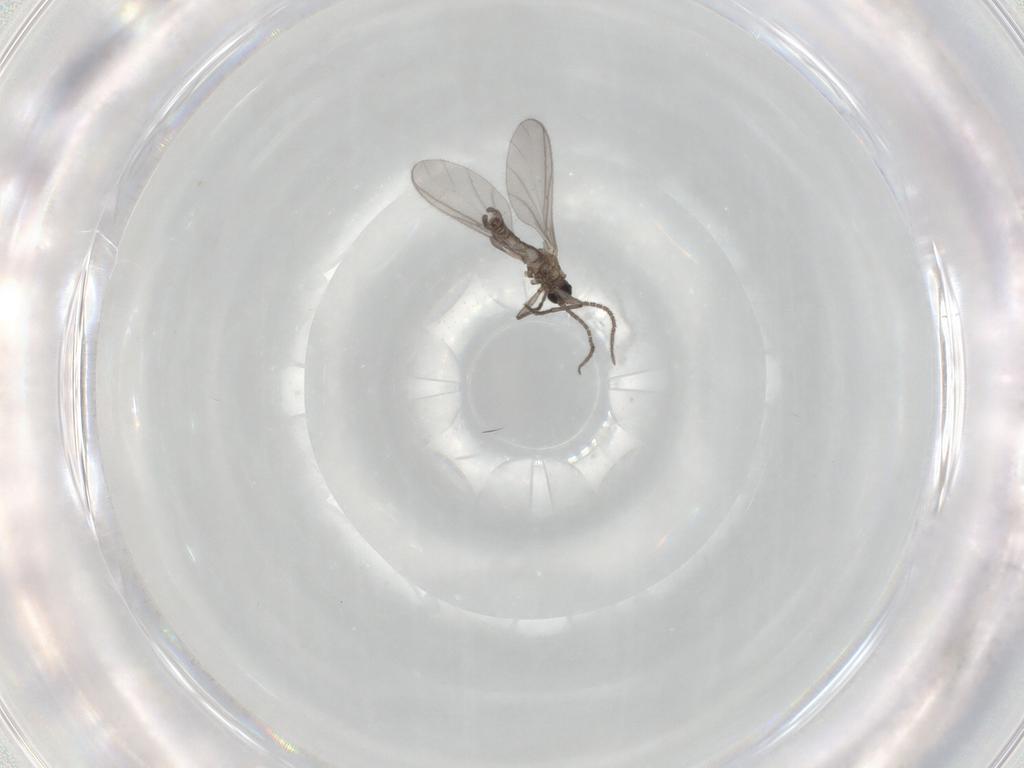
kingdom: Animalia
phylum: Arthropoda
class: Insecta
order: Diptera
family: Sciaridae
